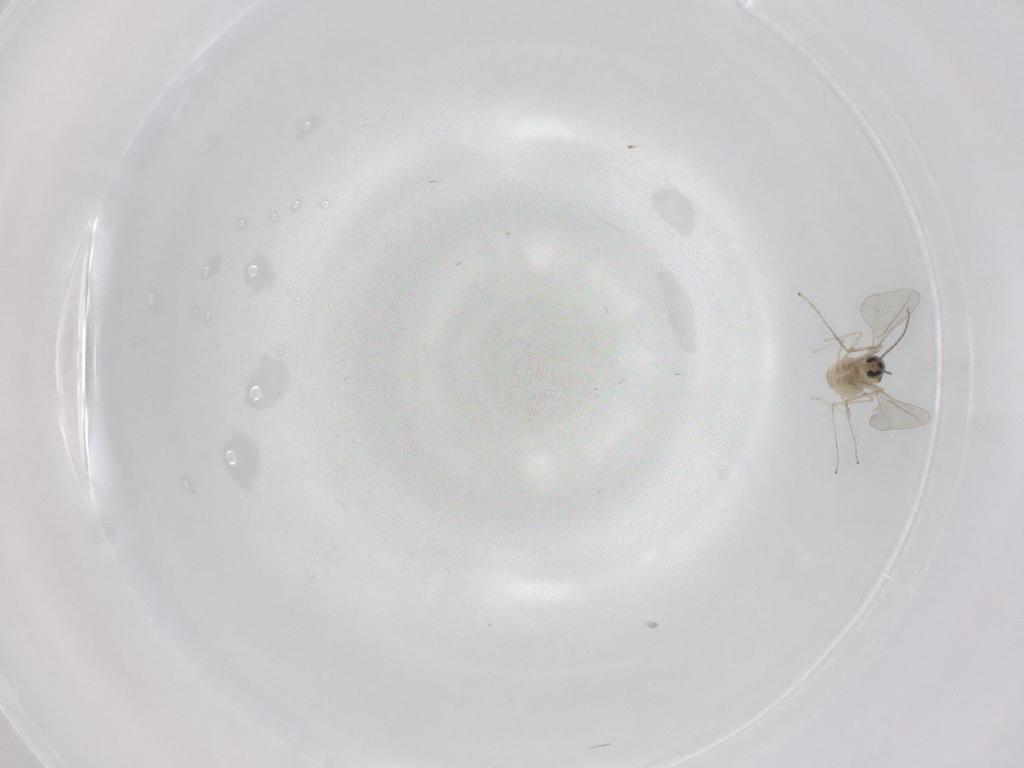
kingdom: Animalia
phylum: Arthropoda
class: Insecta
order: Diptera
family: Cecidomyiidae
